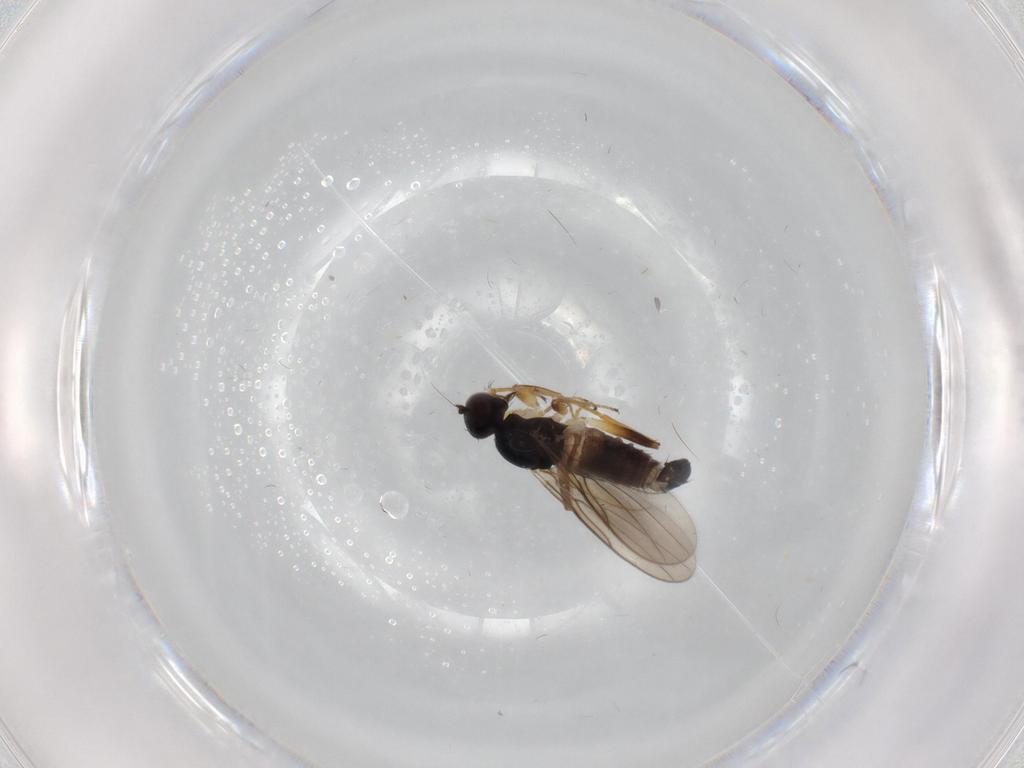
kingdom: Animalia
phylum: Arthropoda
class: Insecta
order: Diptera
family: Hybotidae
